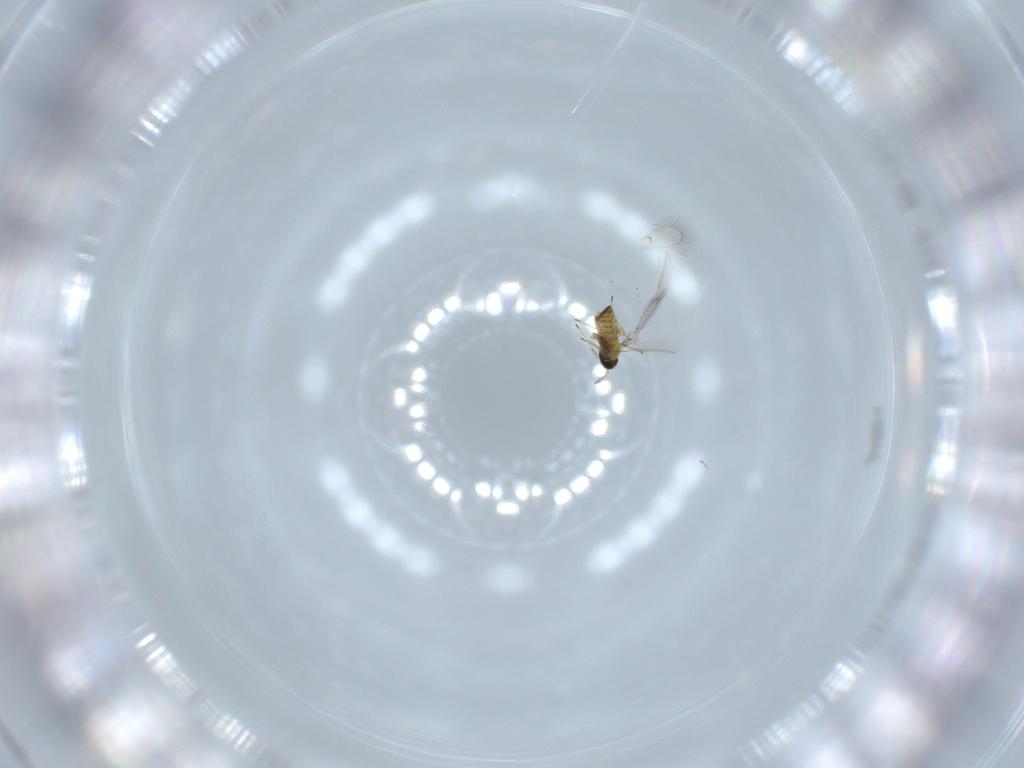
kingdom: Animalia
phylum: Arthropoda
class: Insecta
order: Hymenoptera
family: Trichogrammatidae
